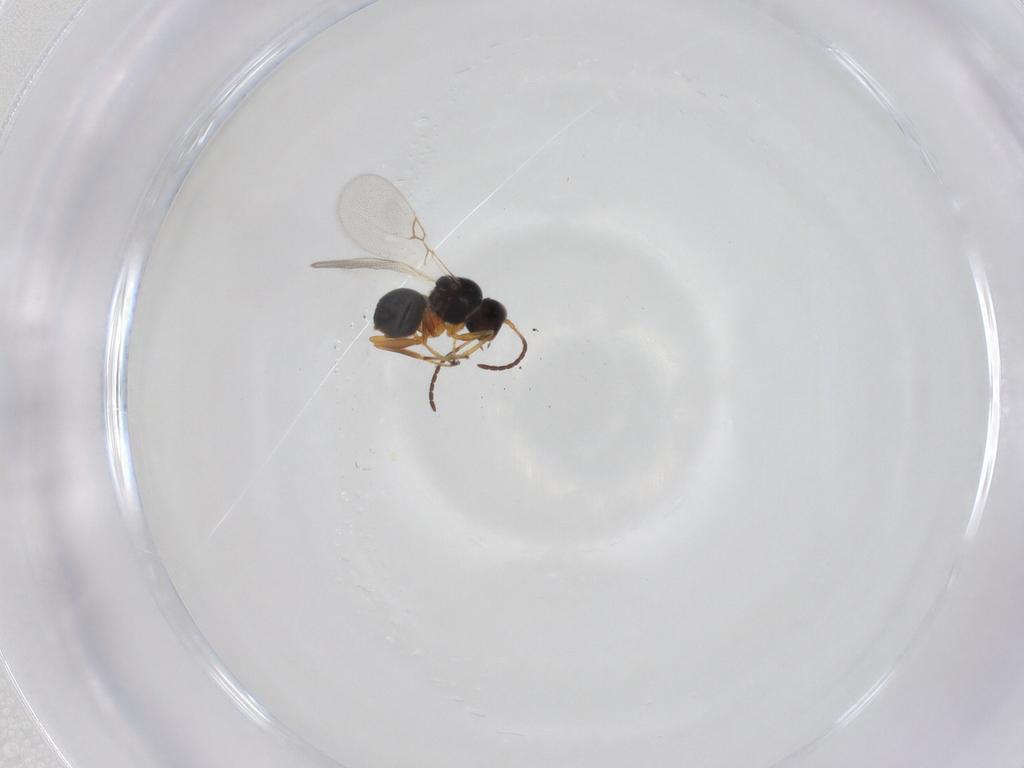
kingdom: Animalia
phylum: Arthropoda
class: Insecta
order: Hymenoptera
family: Figitidae
